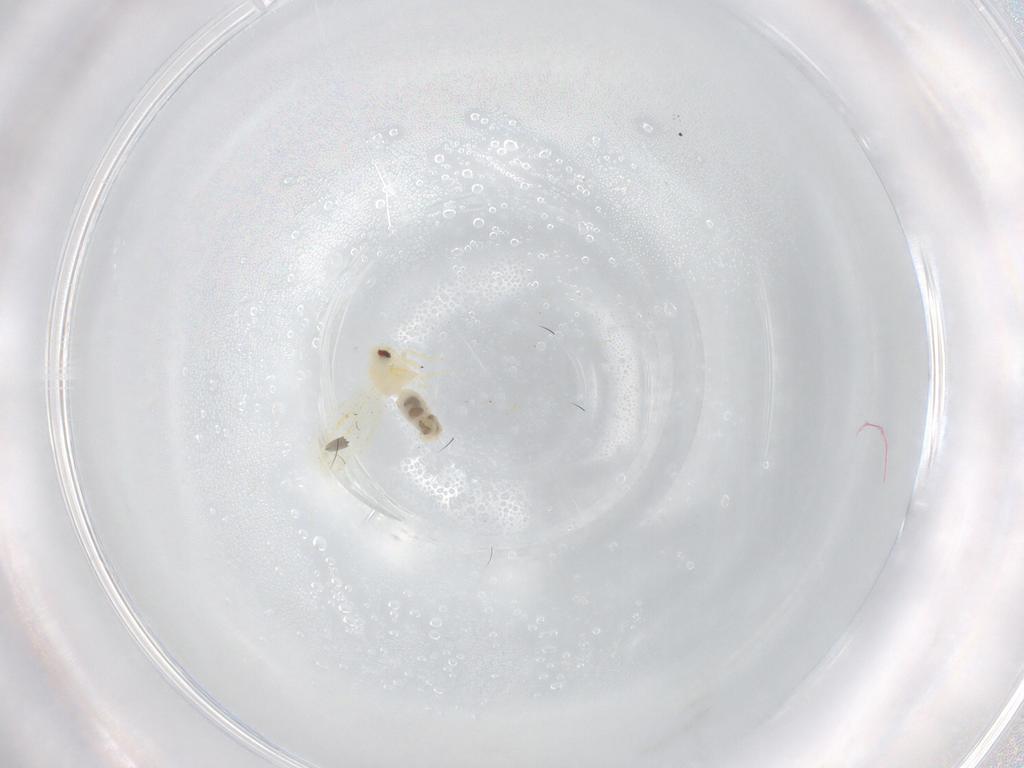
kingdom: Animalia
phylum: Arthropoda
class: Insecta
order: Hemiptera
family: Aleyrodidae
